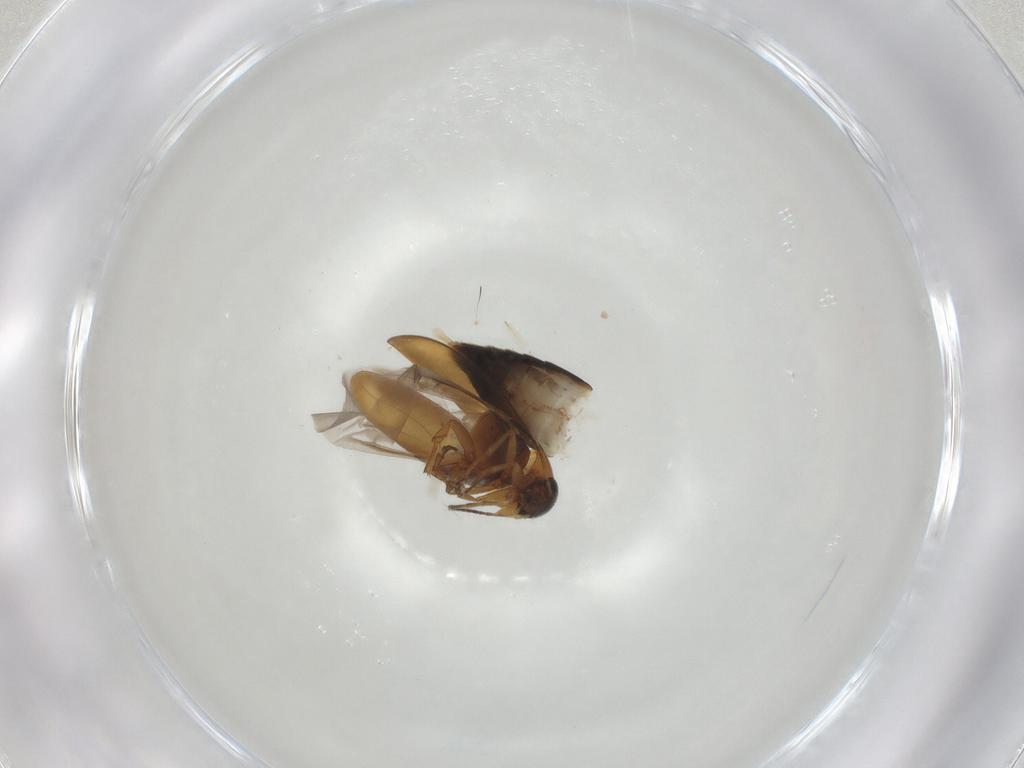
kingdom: Animalia
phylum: Arthropoda
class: Insecta
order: Coleoptera
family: Scraptiidae
